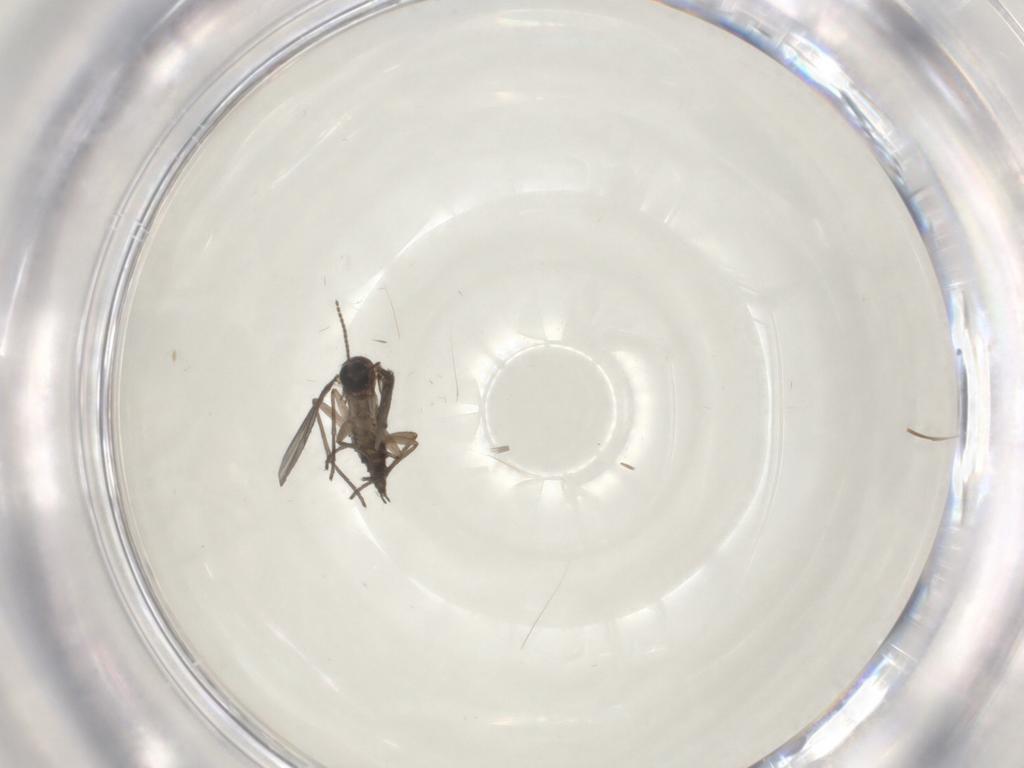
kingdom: Animalia
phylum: Arthropoda
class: Insecta
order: Diptera
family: Sciaridae
